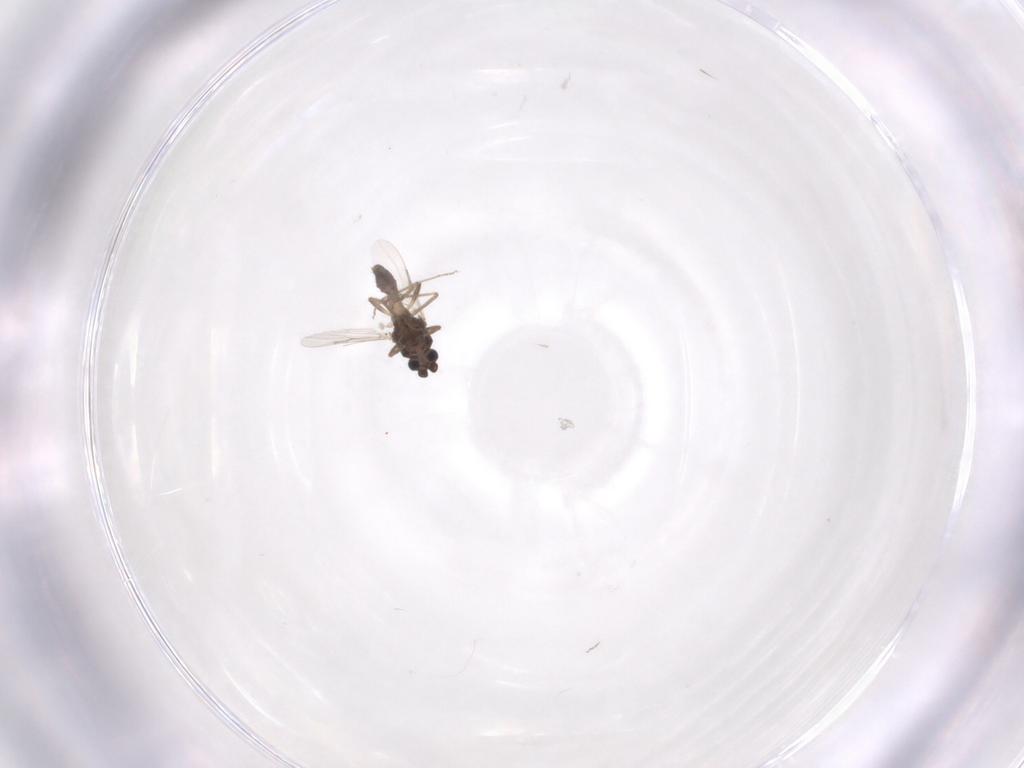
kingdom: Animalia
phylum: Arthropoda
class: Insecta
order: Diptera
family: Ceratopogonidae
